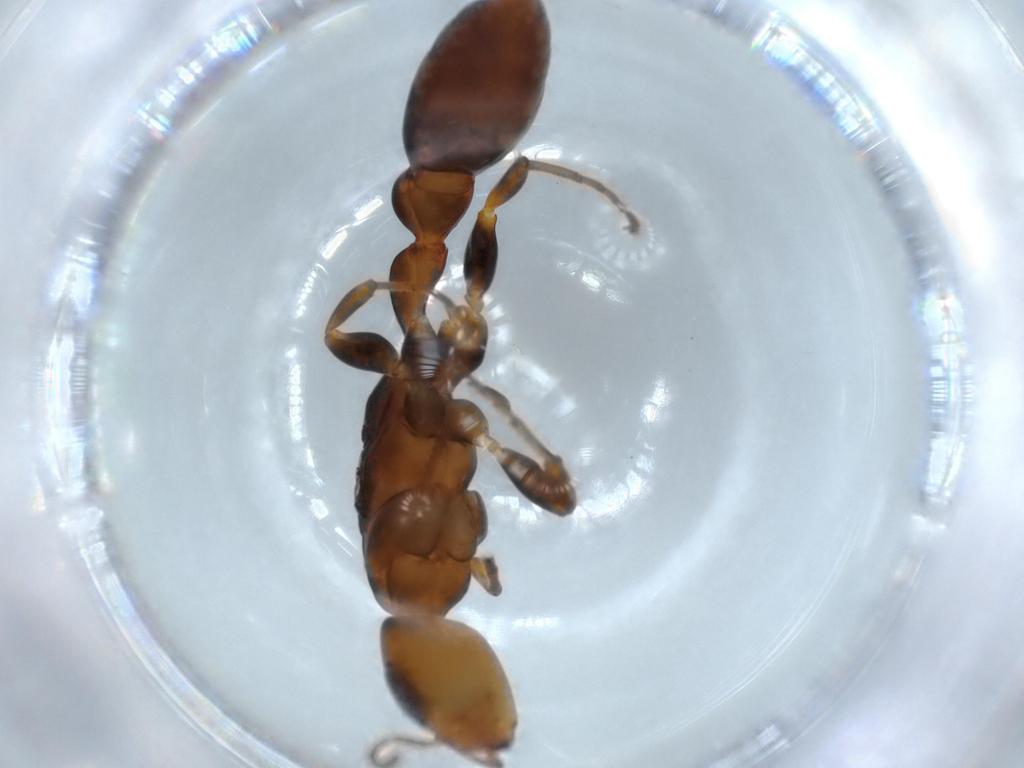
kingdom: Animalia
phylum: Arthropoda
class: Insecta
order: Hymenoptera
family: Formicidae
